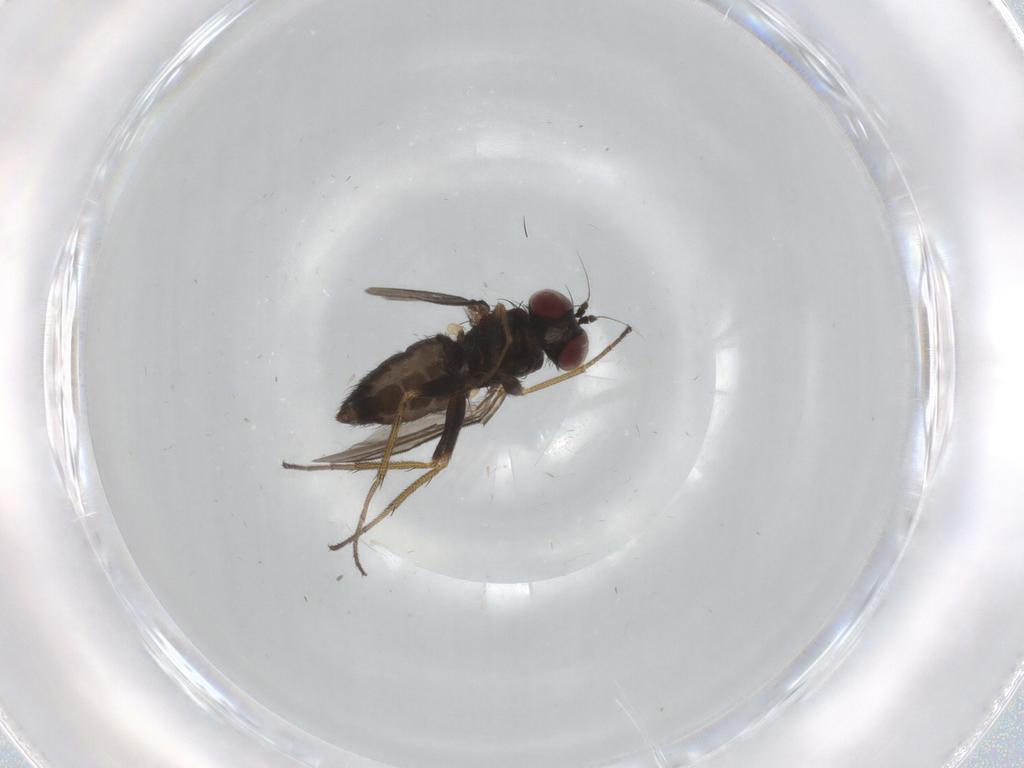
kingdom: Animalia
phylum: Arthropoda
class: Insecta
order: Diptera
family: Dolichopodidae
